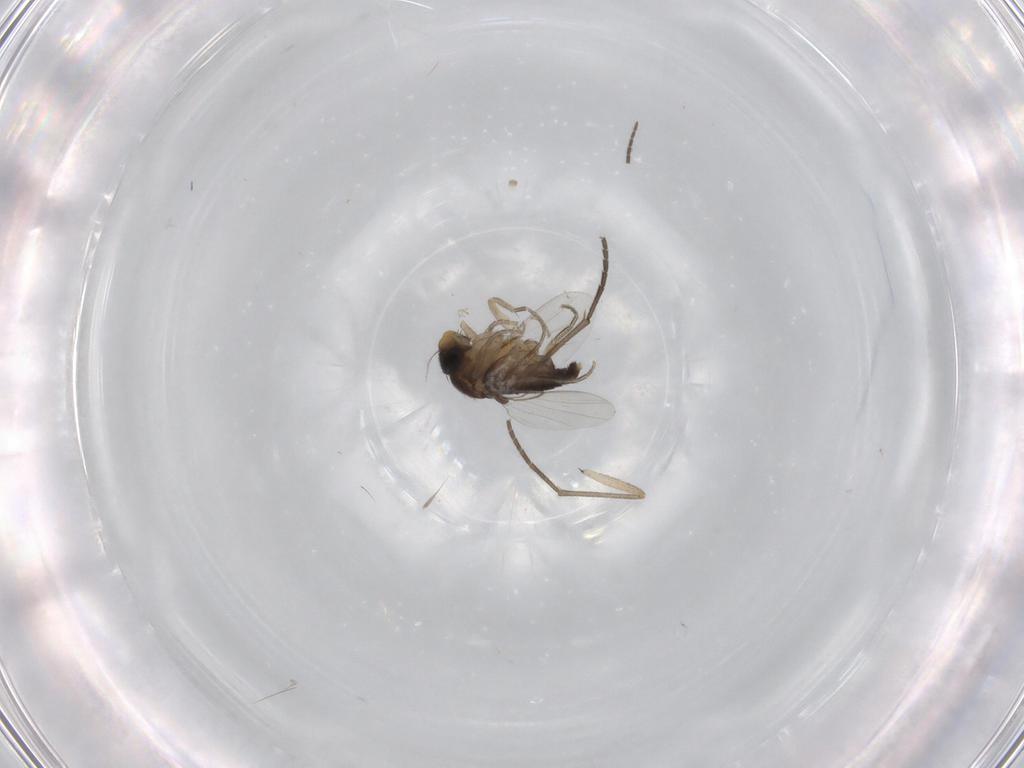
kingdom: Animalia
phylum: Arthropoda
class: Insecta
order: Diptera
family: Phoridae
